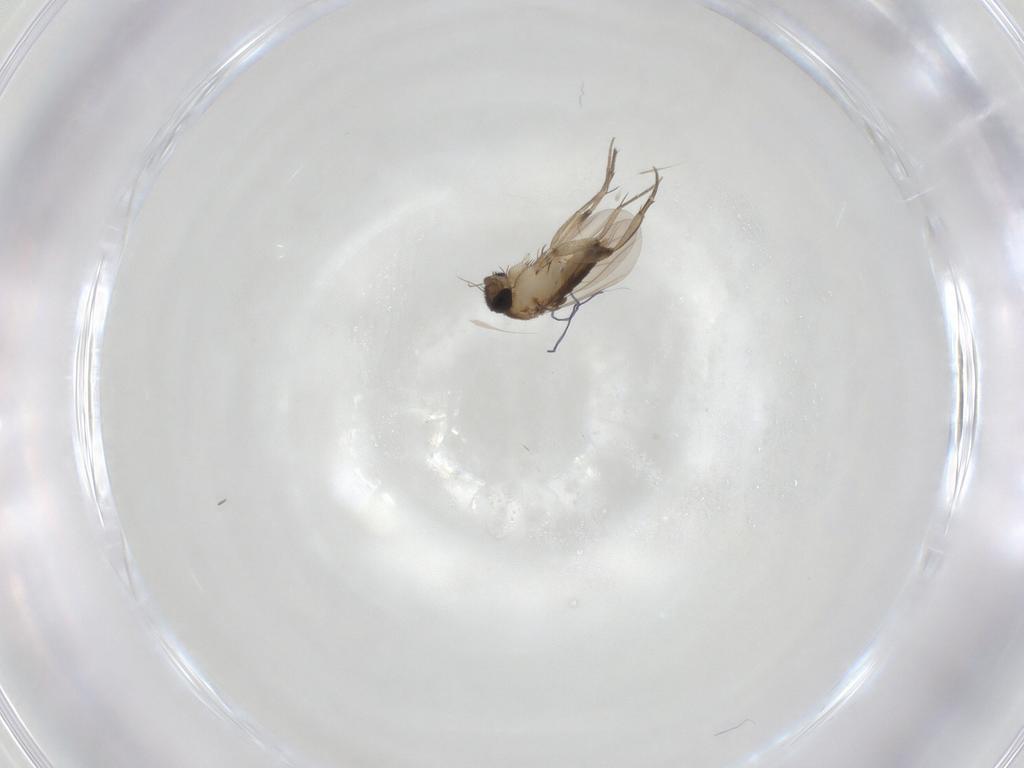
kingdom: Animalia
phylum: Arthropoda
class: Insecta
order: Diptera
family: Phoridae
